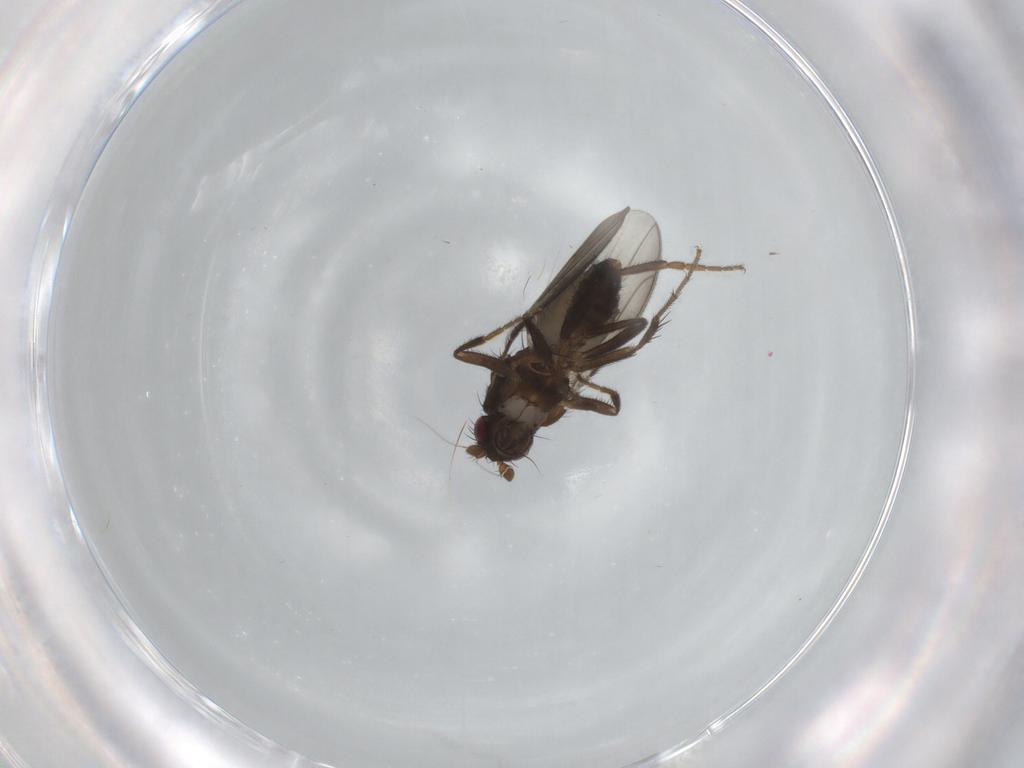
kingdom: Animalia
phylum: Arthropoda
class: Insecta
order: Diptera
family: Sphaeroceridae
